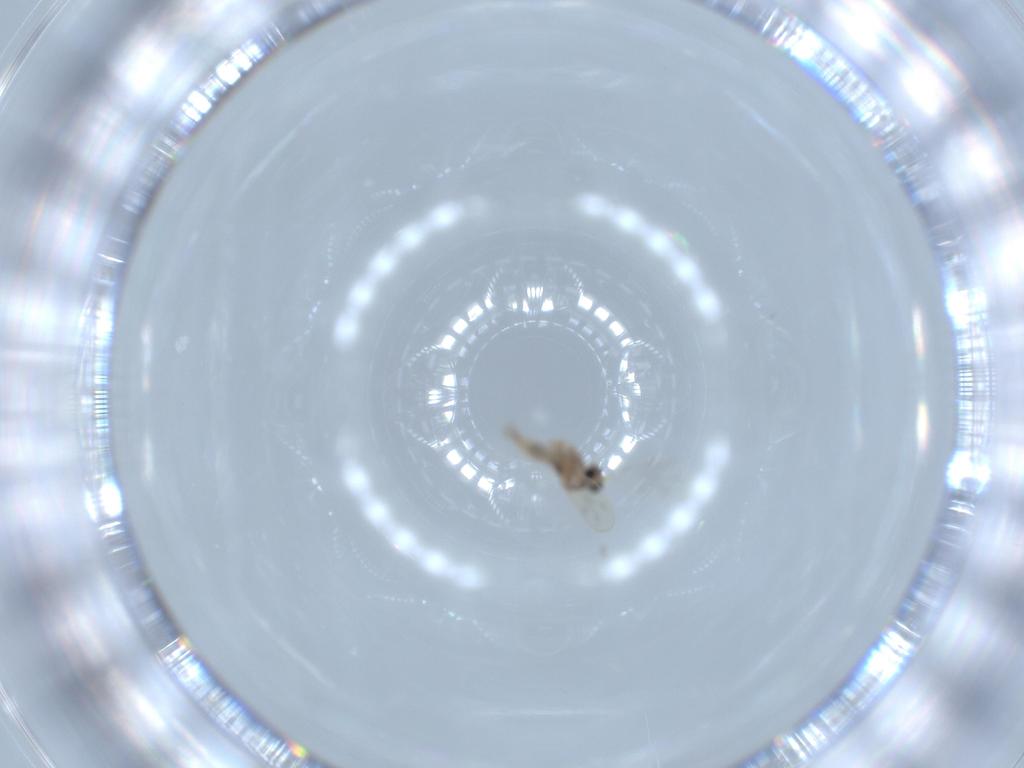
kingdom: Animalia
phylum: Arthropoda
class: Insecta
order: Diptera
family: Cecidomyiidae
